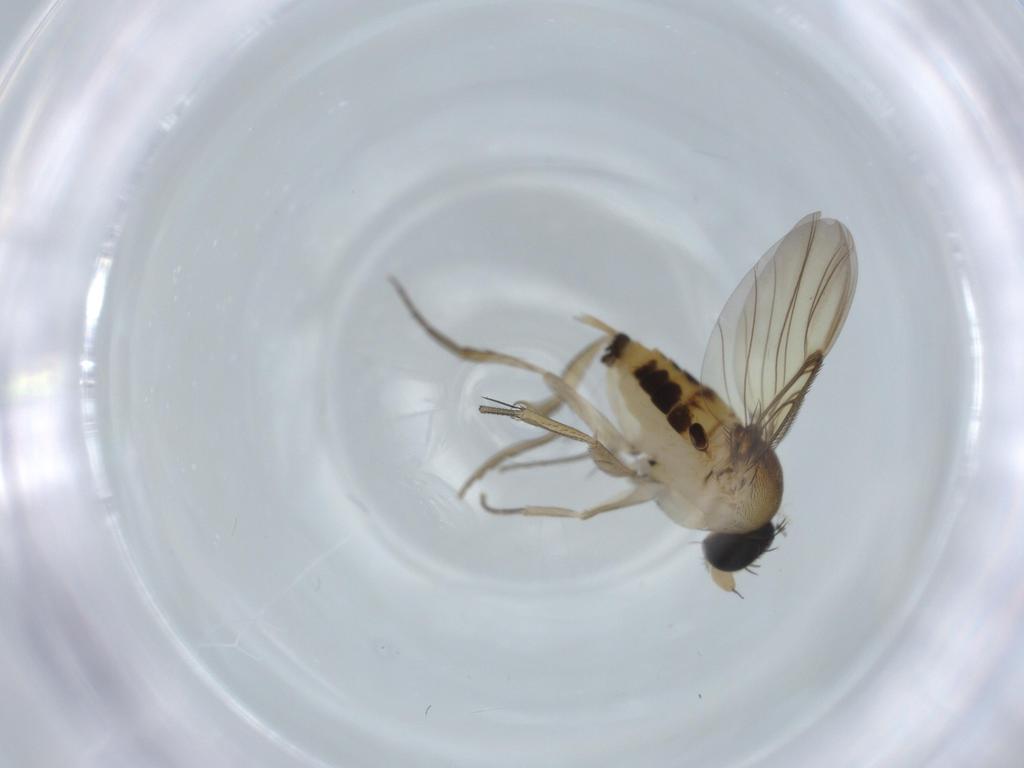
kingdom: Animalia
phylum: Arthropoda
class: Insecta
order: Diptera
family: Phoridae
